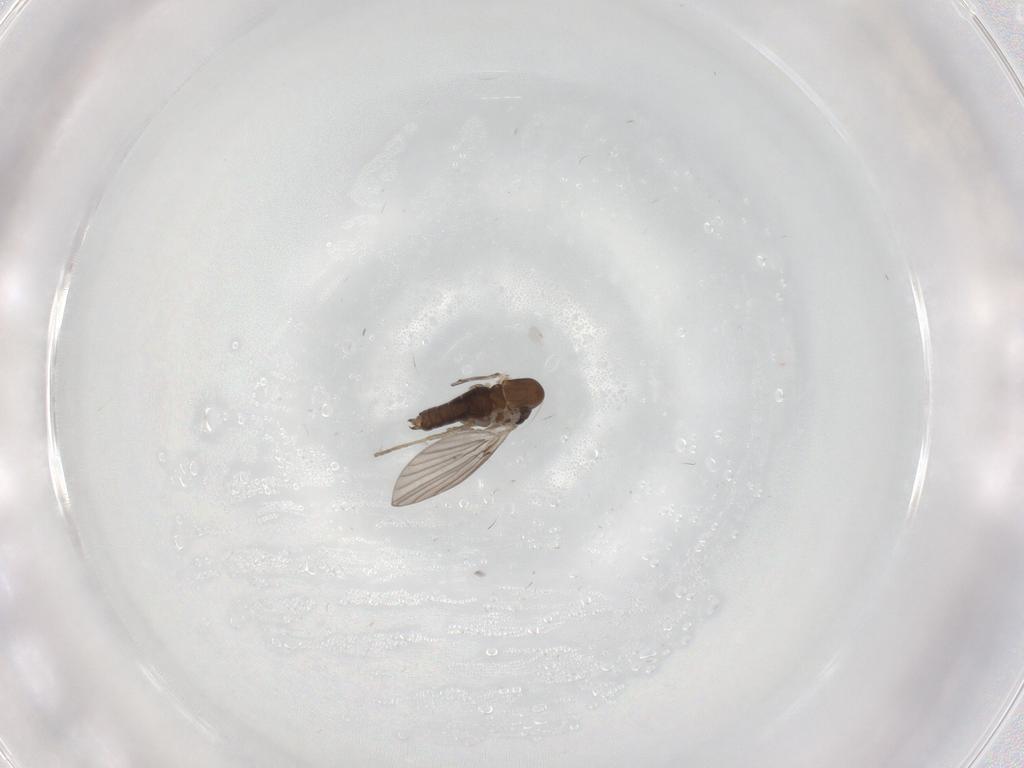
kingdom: Animalia
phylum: Arthropoda
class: Insecta
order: Diptera
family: Cecidomyiidae
